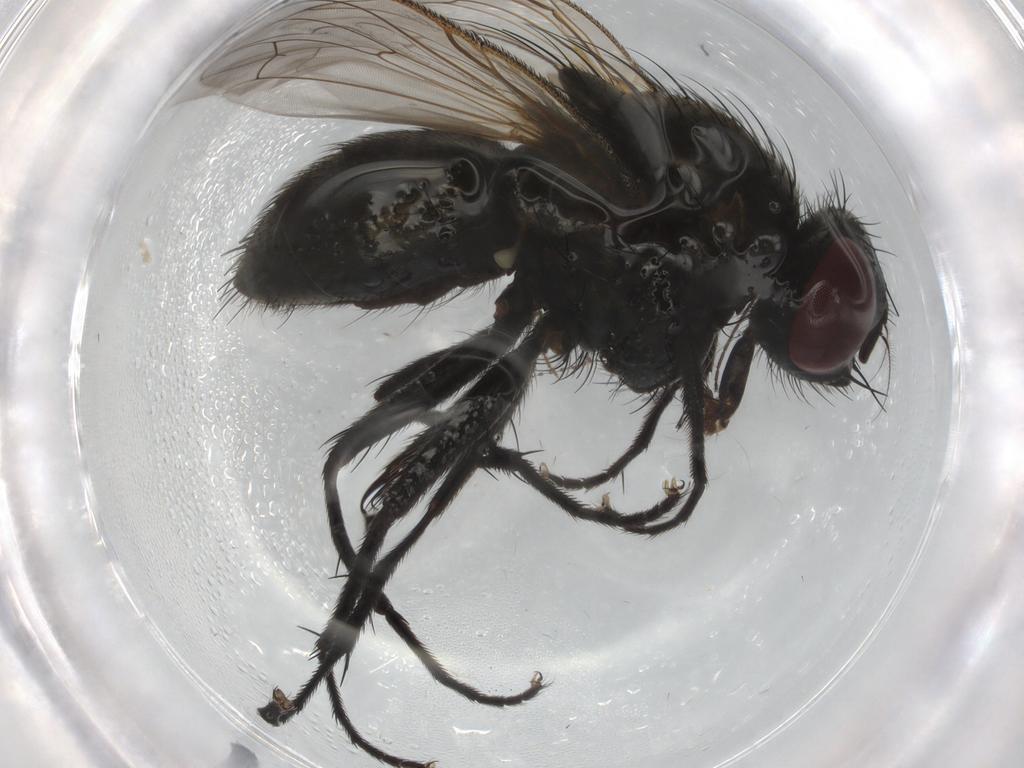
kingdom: Animalia
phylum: Arthropoda
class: Insecta
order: Diptera
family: Muscidae
